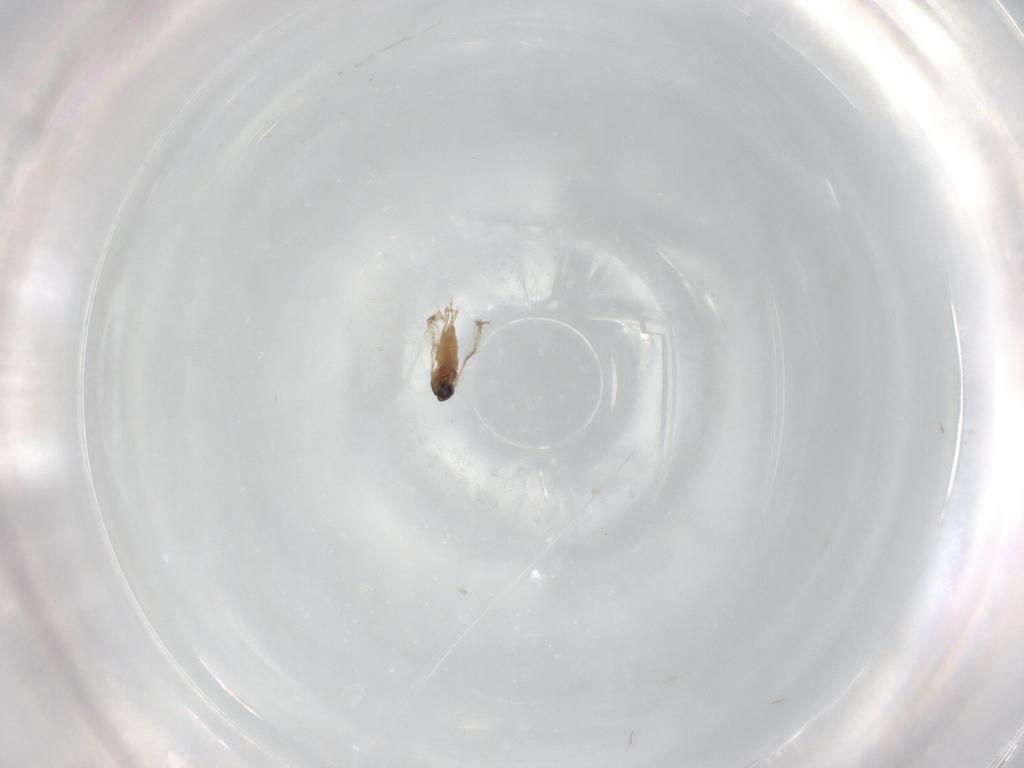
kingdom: Animalia
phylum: Arthropoda
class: Insecta
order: Diptera
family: Cecidomyiidae
